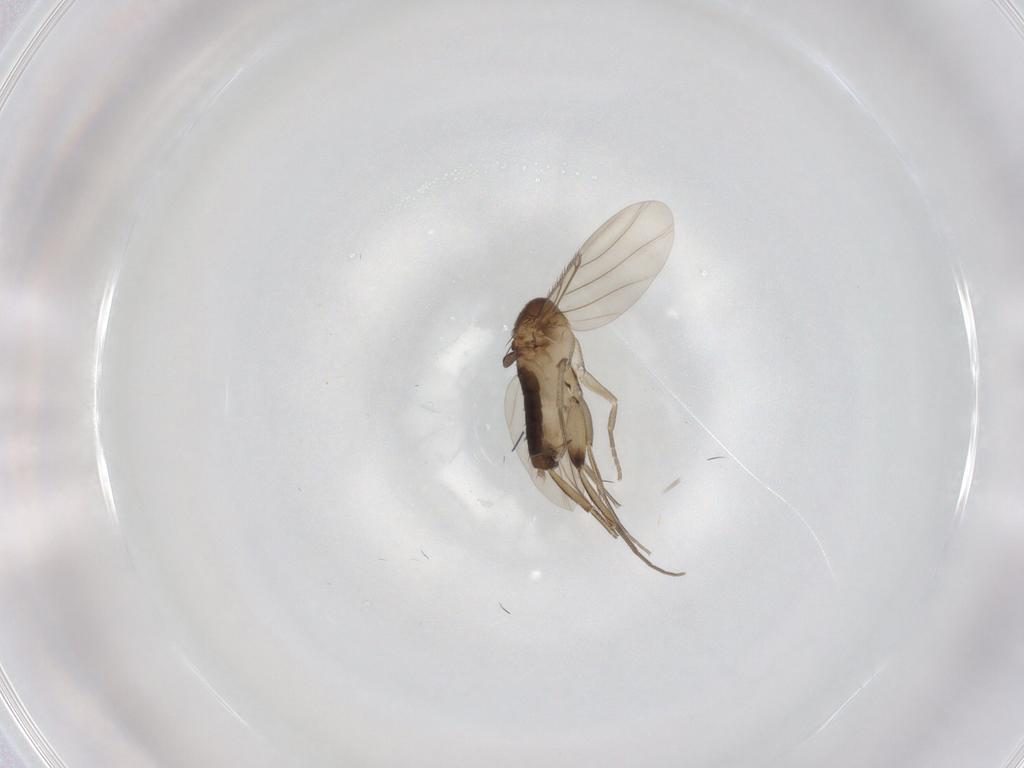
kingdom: Animalia
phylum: Arthropoda
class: Insecta
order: Diptera
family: Phoridae
